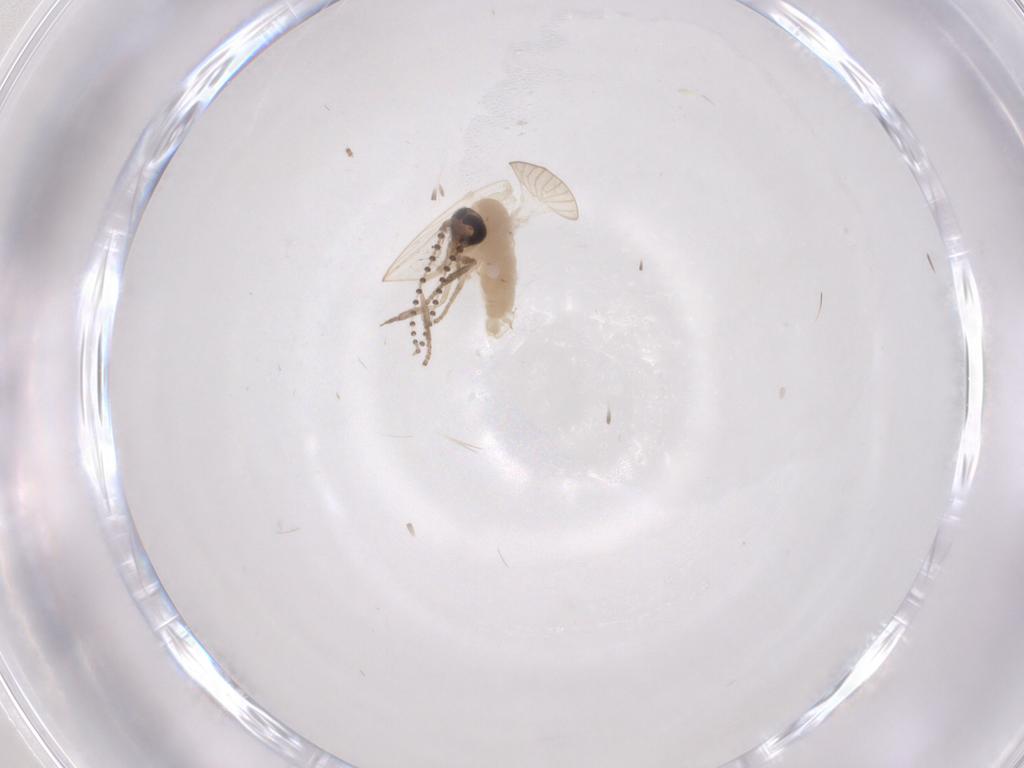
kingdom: Animalia
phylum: Arthropoda
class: Insecta
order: Diptera
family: Psychodidae
